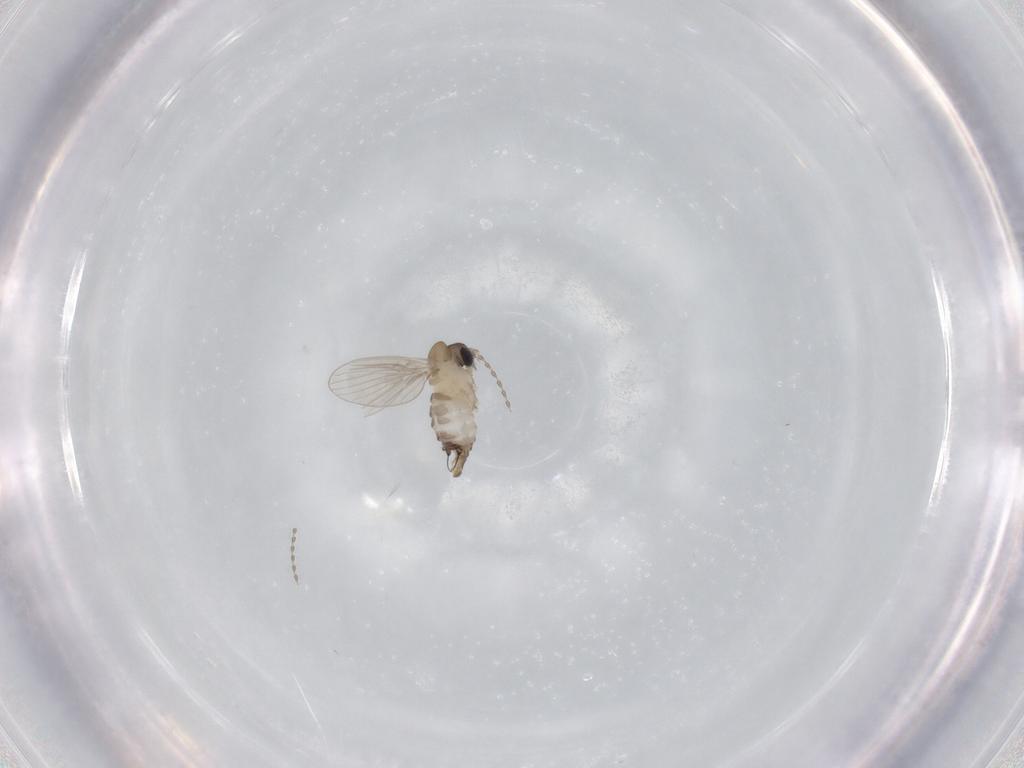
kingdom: Animalia
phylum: Arthropoda
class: Insecta
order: Diptera
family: Psychodidae
